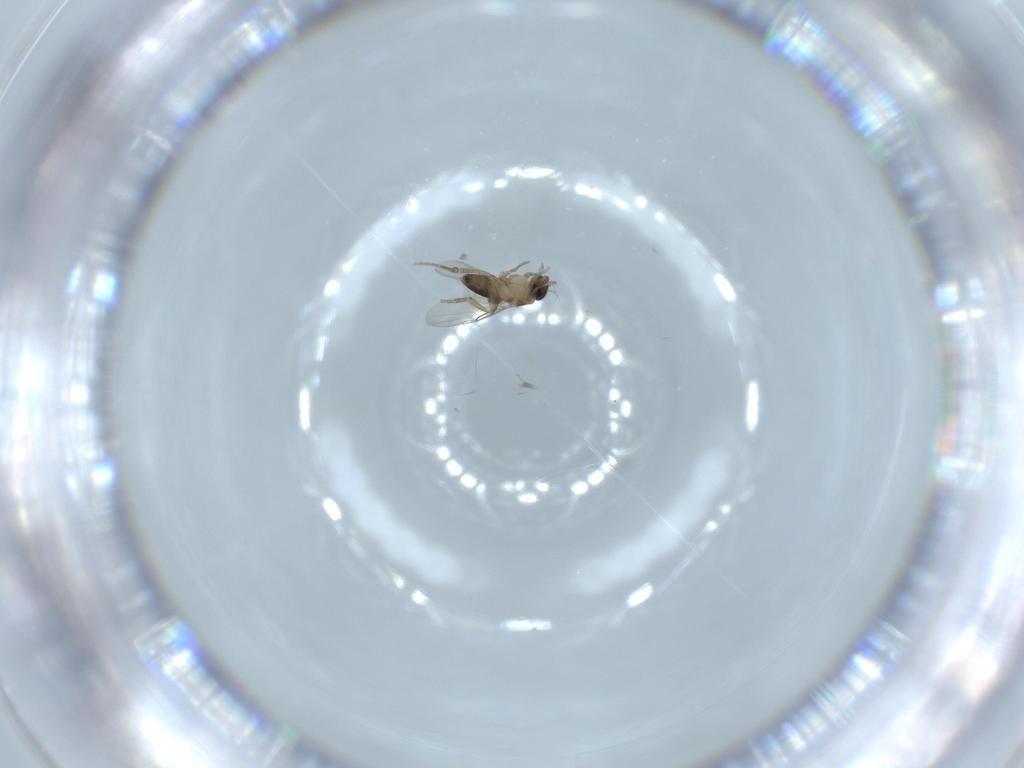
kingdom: Animalia
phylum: Arthropoda
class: Insecta
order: Diptera
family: Phoridae
